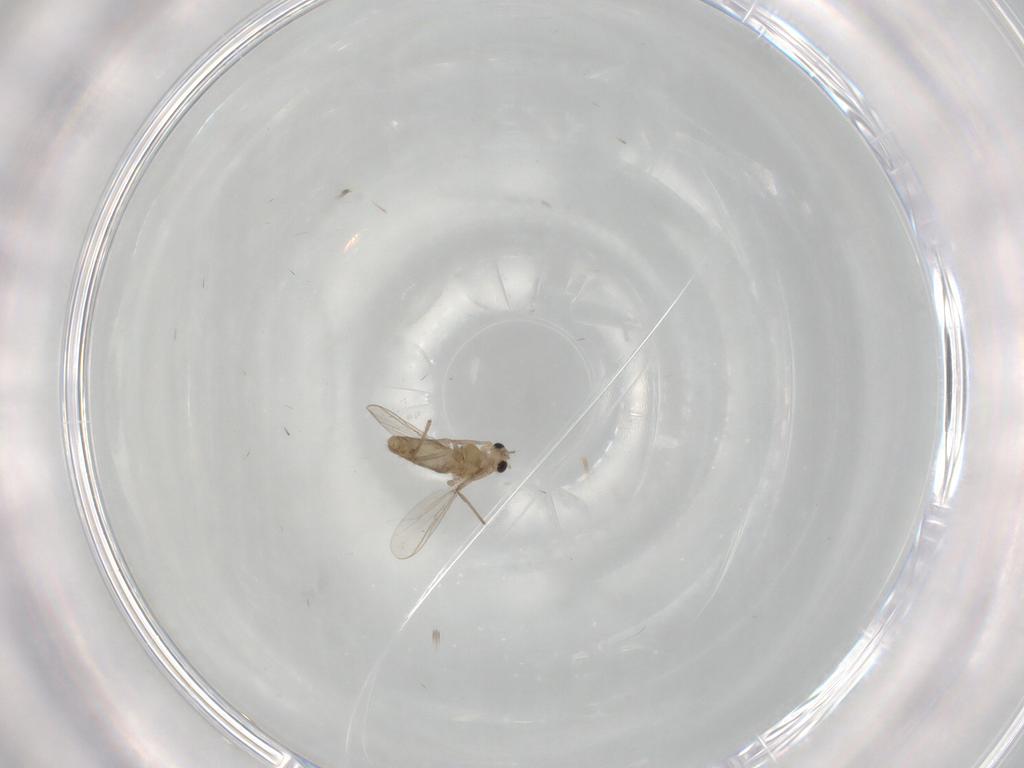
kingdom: Animalia
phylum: Arthropoda
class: Insecta
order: Diptera
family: Chironomidae
